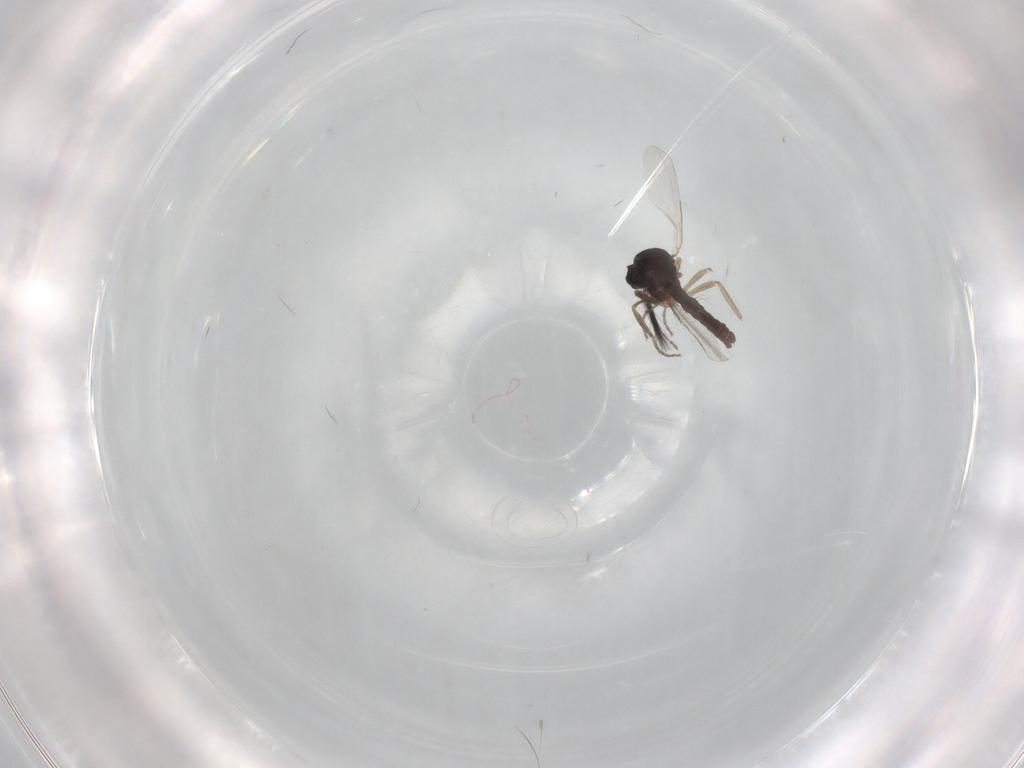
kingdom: Animalia
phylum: Arthropoda
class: Insecta
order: Diptera
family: Ceratopogonidae
